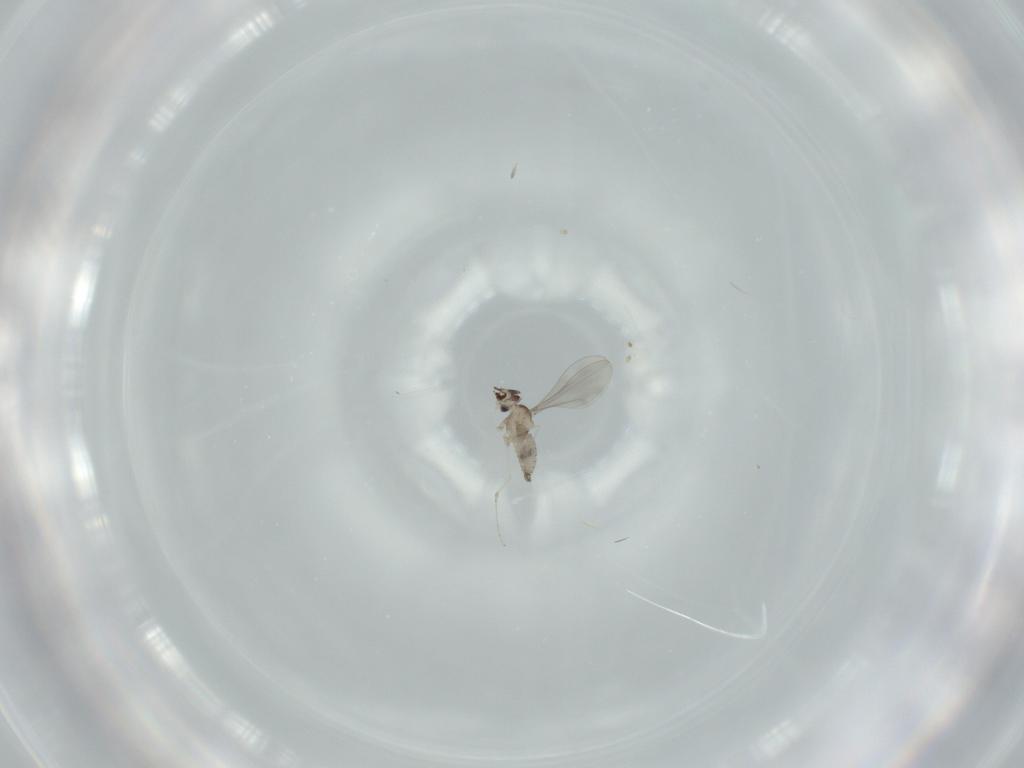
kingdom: Animalia
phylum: Arthropoda
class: Insecta
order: Diptera
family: Cecidomyiidae
